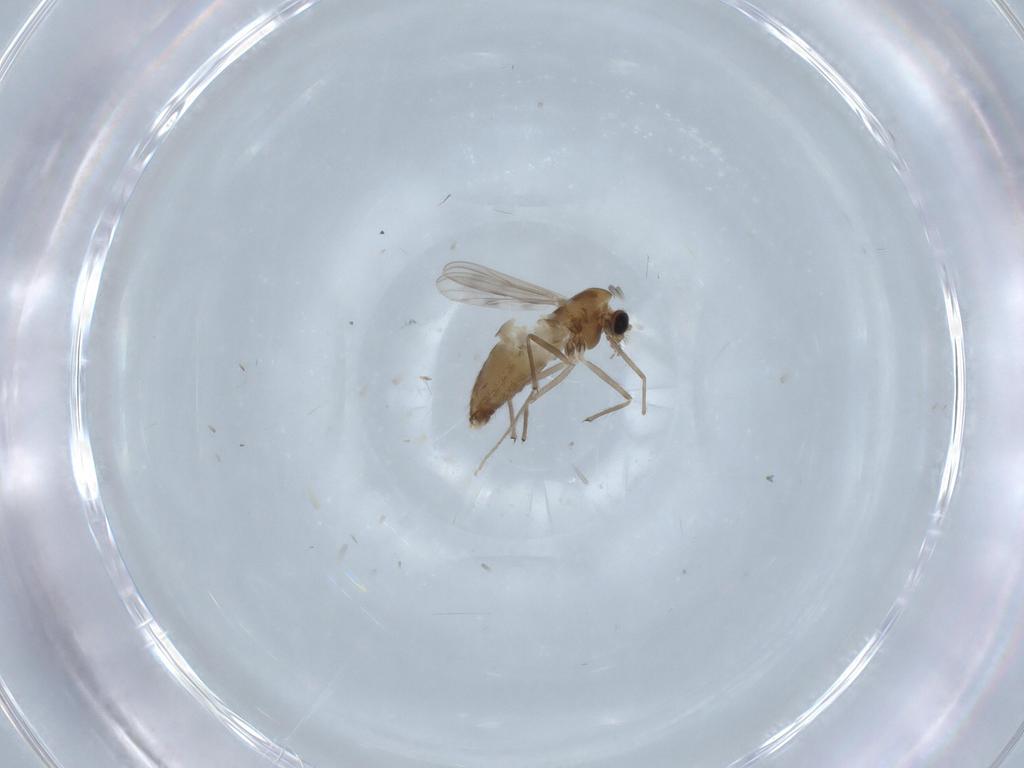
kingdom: Animalia
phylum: Arthropoda
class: Insecta
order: Diptera
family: Chironomidae
